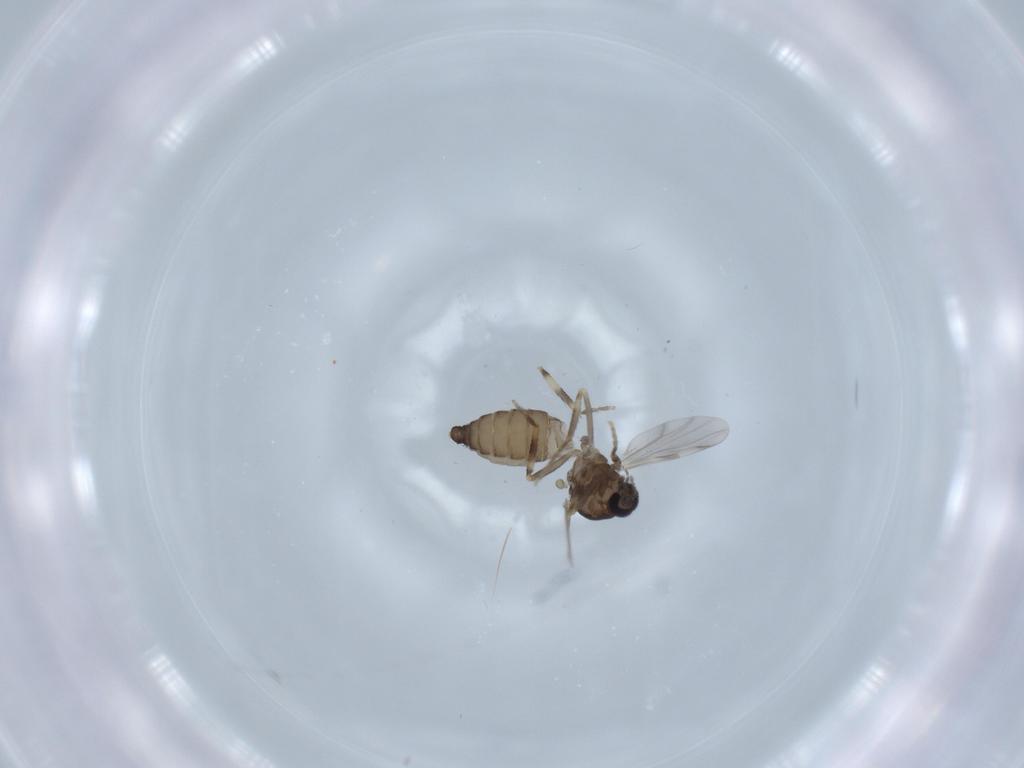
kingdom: Animalia
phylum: Arthropoda
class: Insecta
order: Diptera
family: Ceratopogonidae
